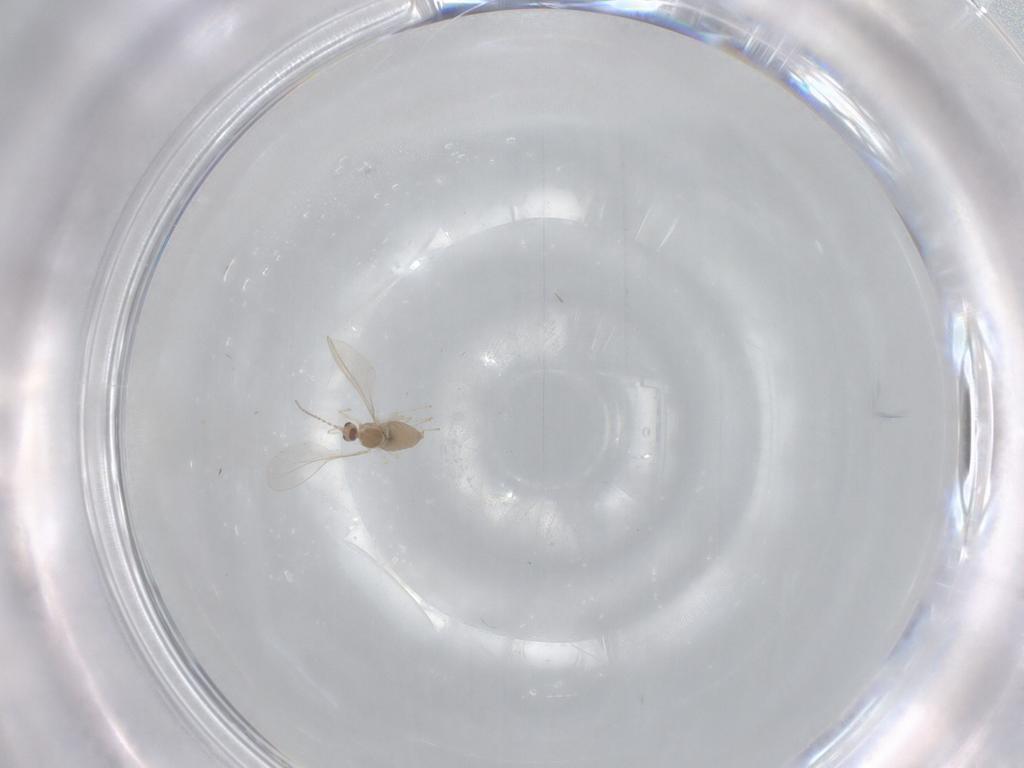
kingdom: Animalia
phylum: Arthropoda
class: Insecta
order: Diptera
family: Cecidomyiidae
